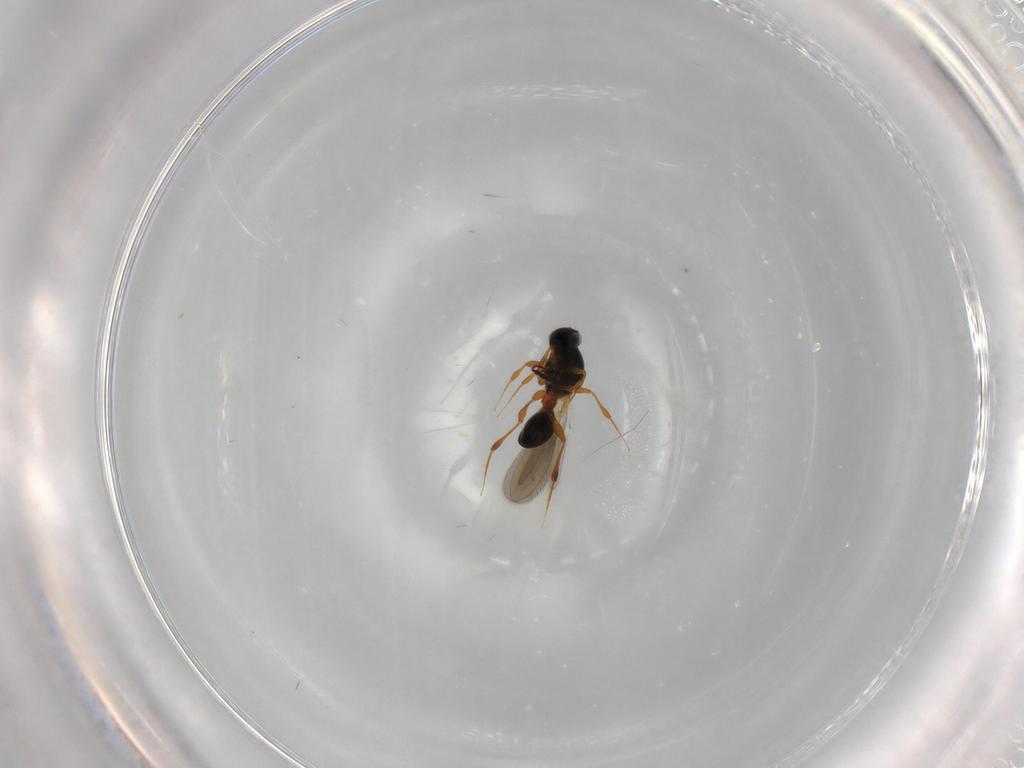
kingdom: Animalia
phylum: Arthropoda
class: Insecta
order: Hymenoptera
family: Platygastridae
